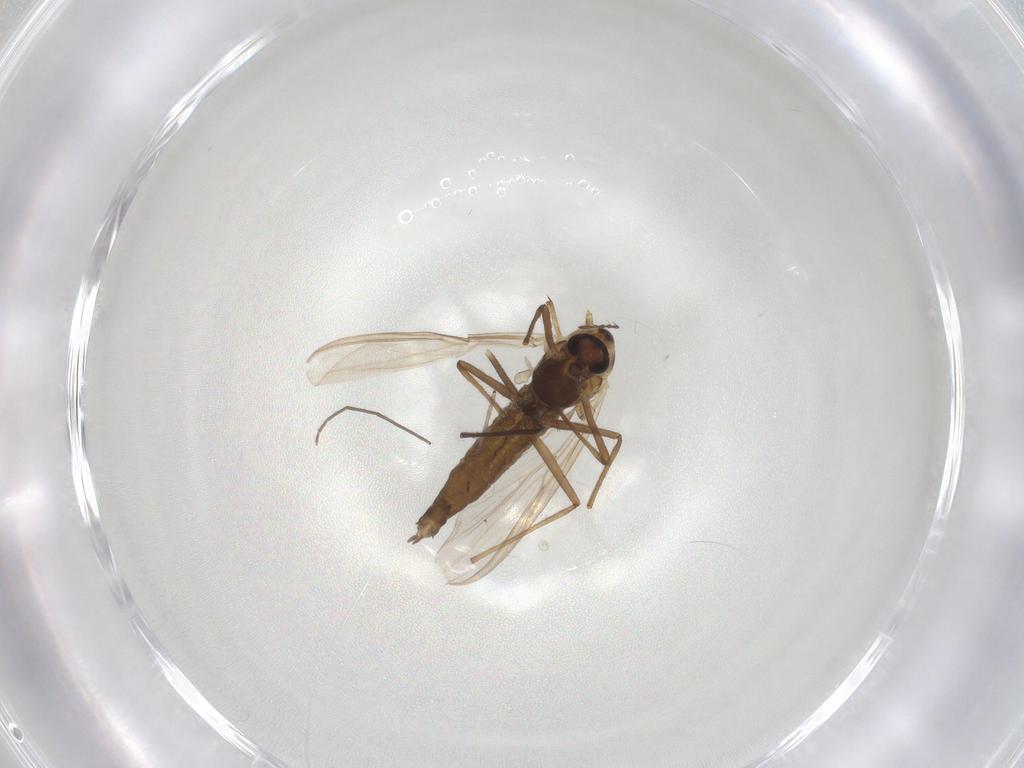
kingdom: Animalia
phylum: Arthropoda
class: Insecta
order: Diptera
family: Chironomidae
